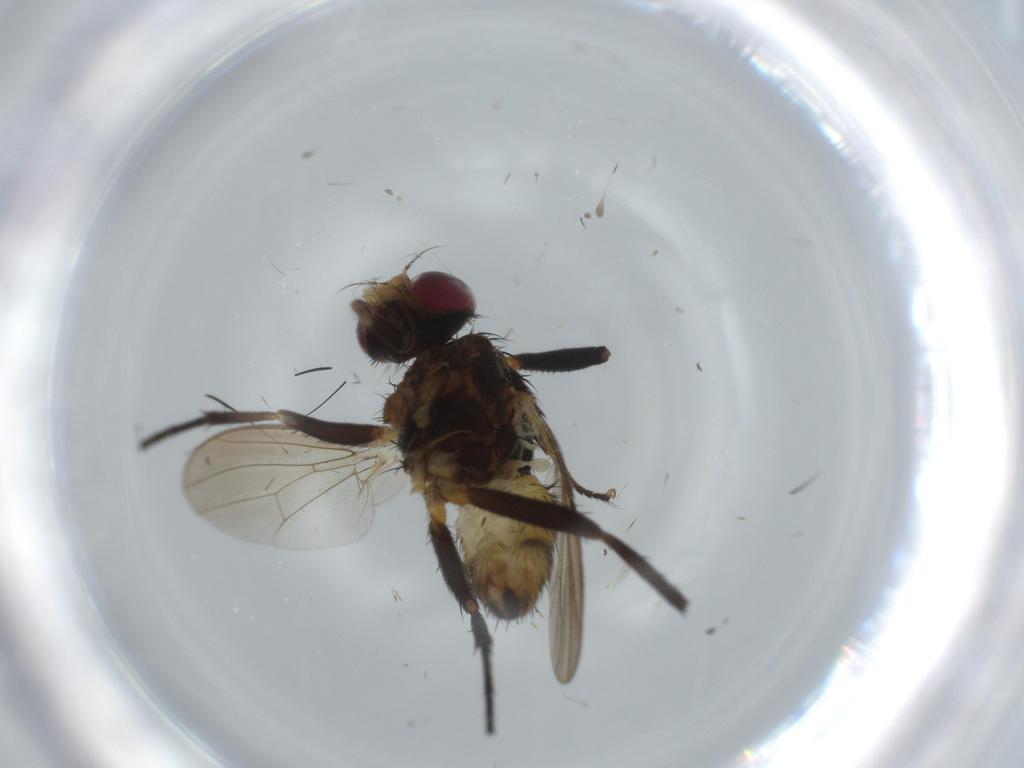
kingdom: Animalia
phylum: Arthropoda
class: Insecta
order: Diptera
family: Anthomyiidae
